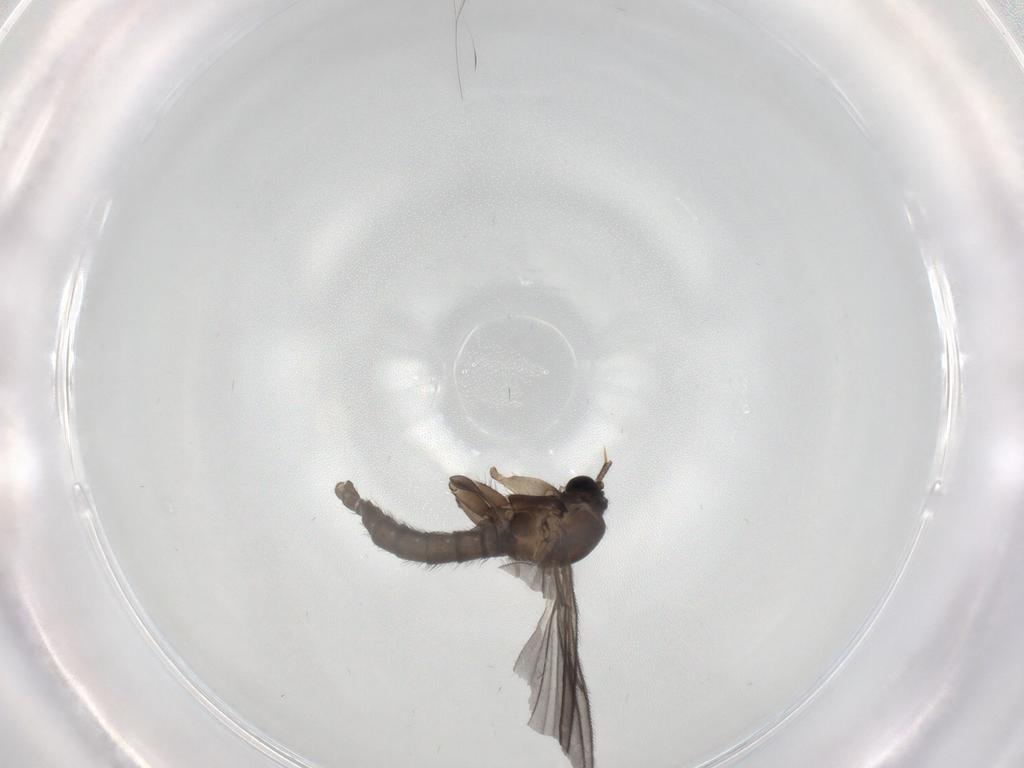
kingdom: Animalia
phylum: Arthropoda
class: Insecta
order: Diptera
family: Sciaridae
